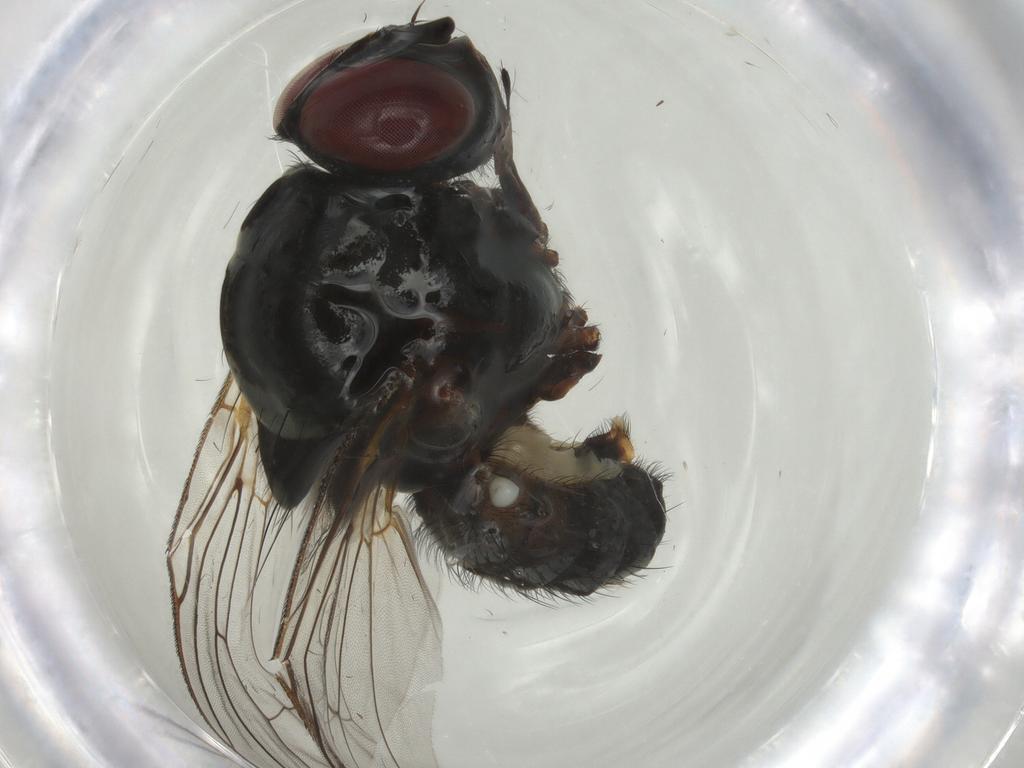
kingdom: Animalia
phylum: Arthropoda
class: Insecta
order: Diptera
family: Anthomyiidae
